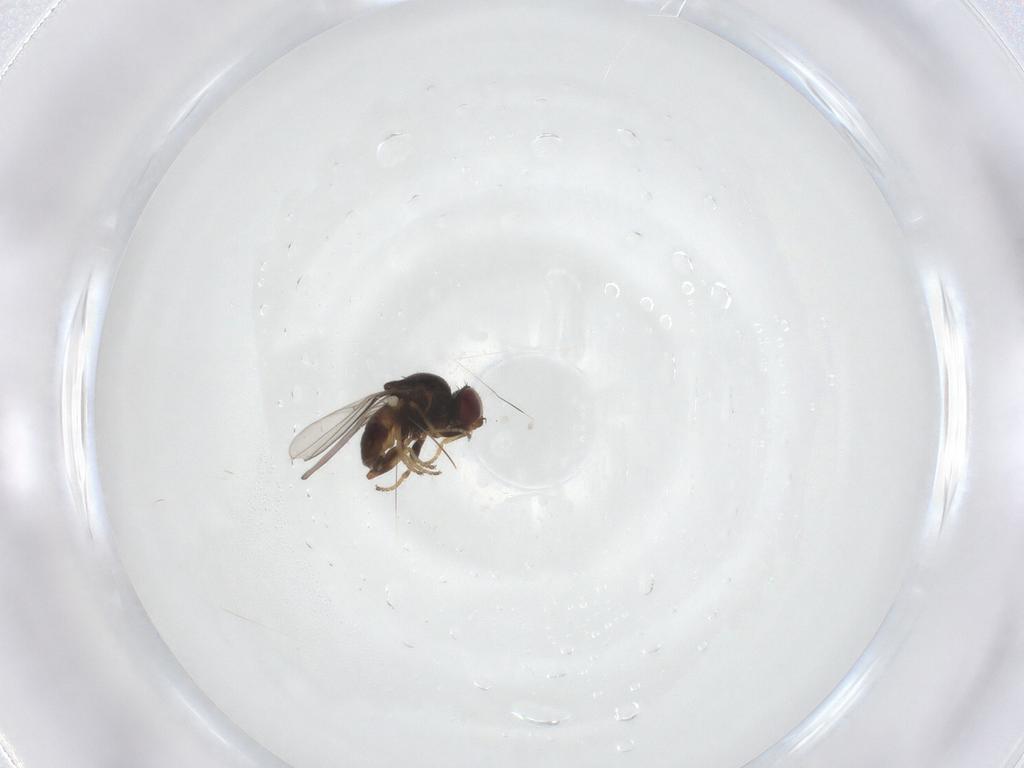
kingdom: Animalia
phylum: Arthropoda
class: Insecta
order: Diptera
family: Chloropidae
